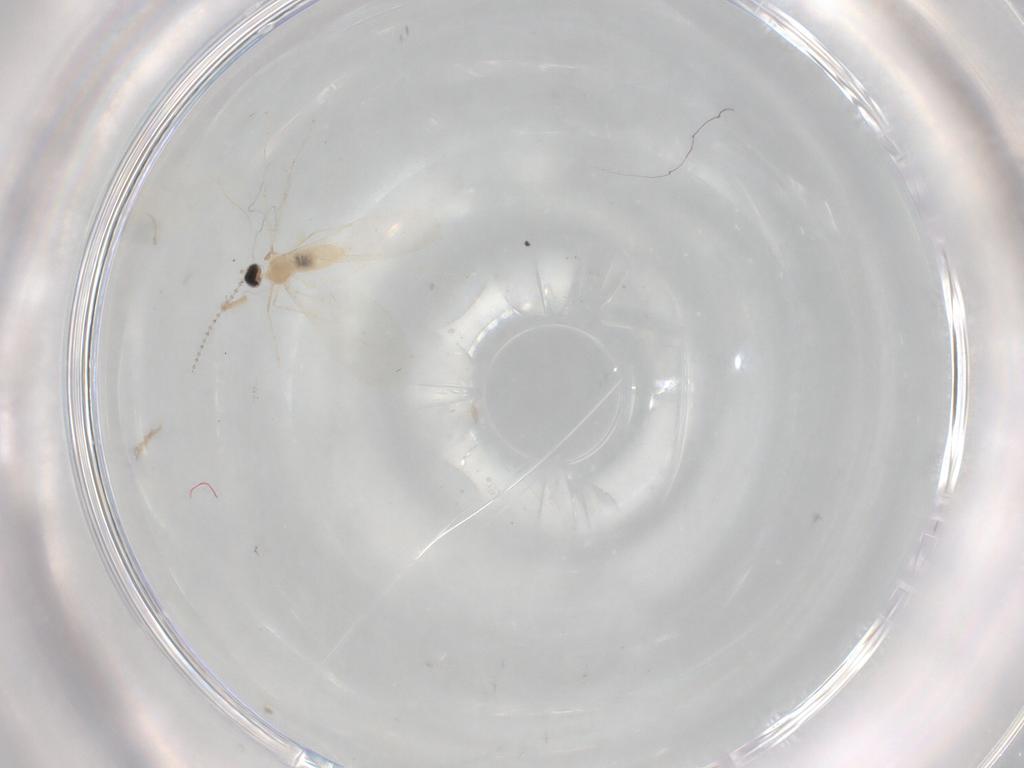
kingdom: Animalia
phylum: Arthropoda
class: Insecta
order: Diptera
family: Cecidomyiidae
